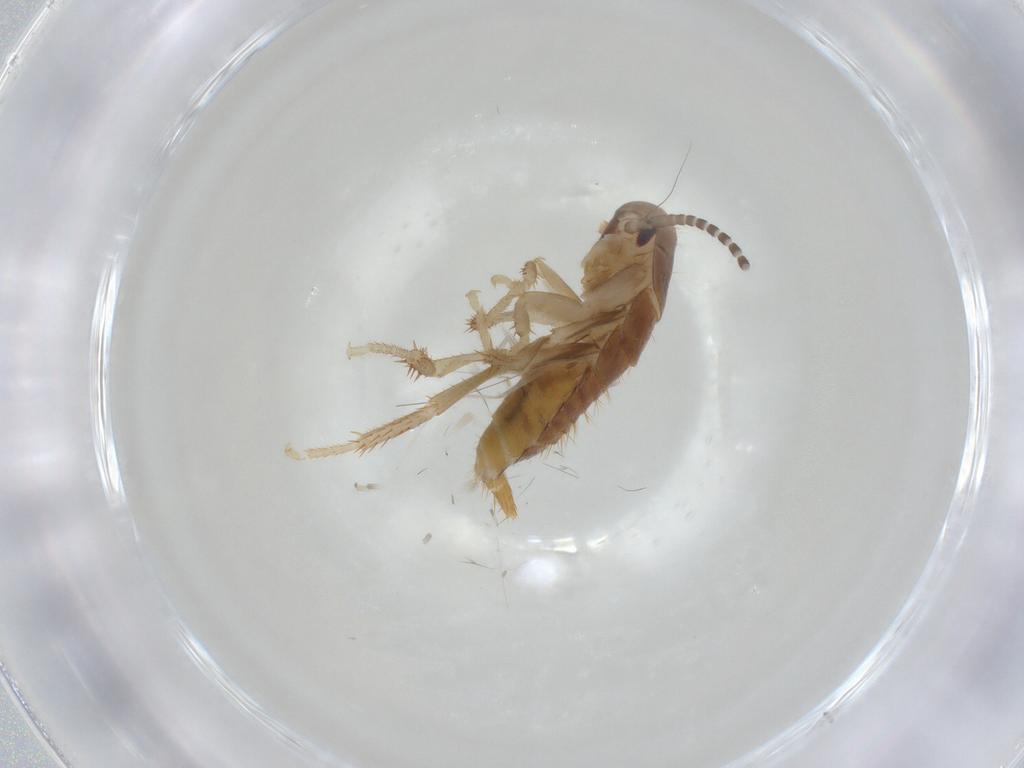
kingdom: Animalia
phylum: Arthropoda
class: Insecta
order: Blattodea
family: Ectobiidae
